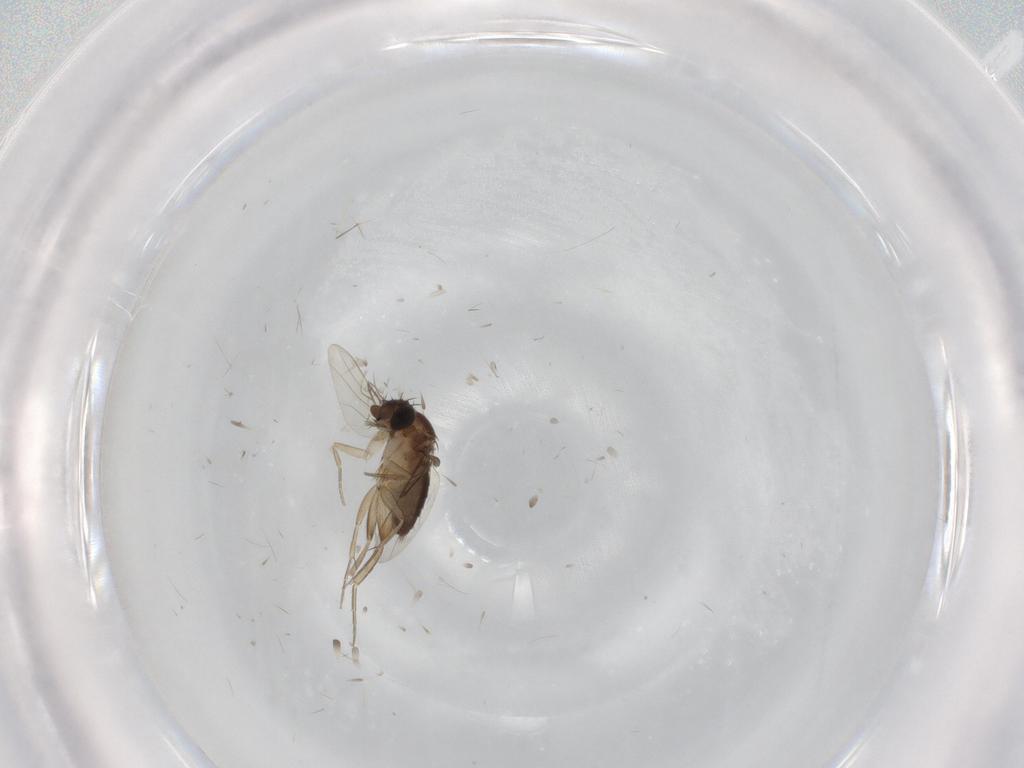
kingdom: Animalia
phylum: Arthropoda
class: Insecta
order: Diptera
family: Phoridae
